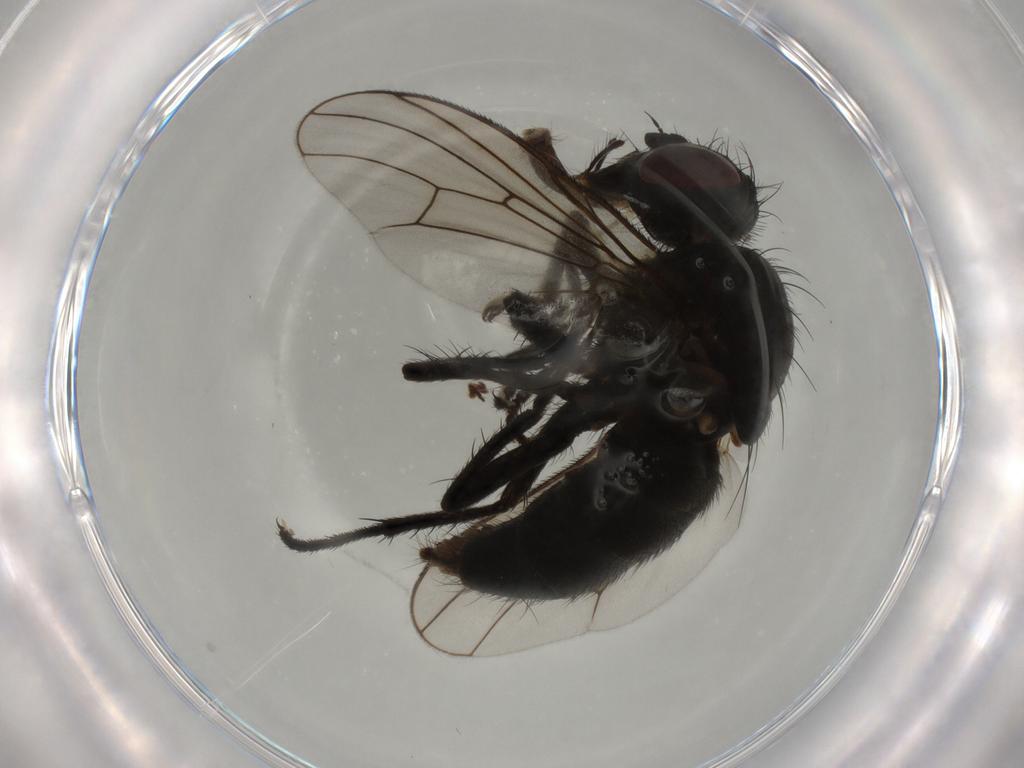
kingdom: Animalia
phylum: Arthropoda
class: Insecta
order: Diptera
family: Muscidae
